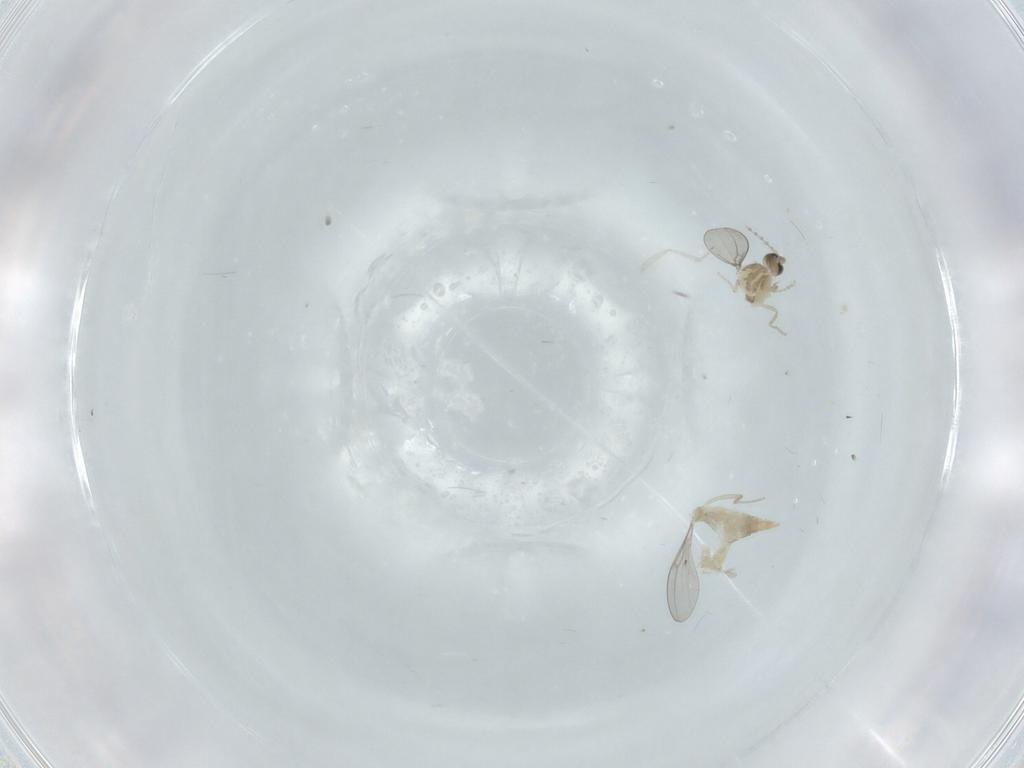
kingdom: Animalia
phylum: Arthropoda
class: Insecta
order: Diptera
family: Cecidomyiidae
